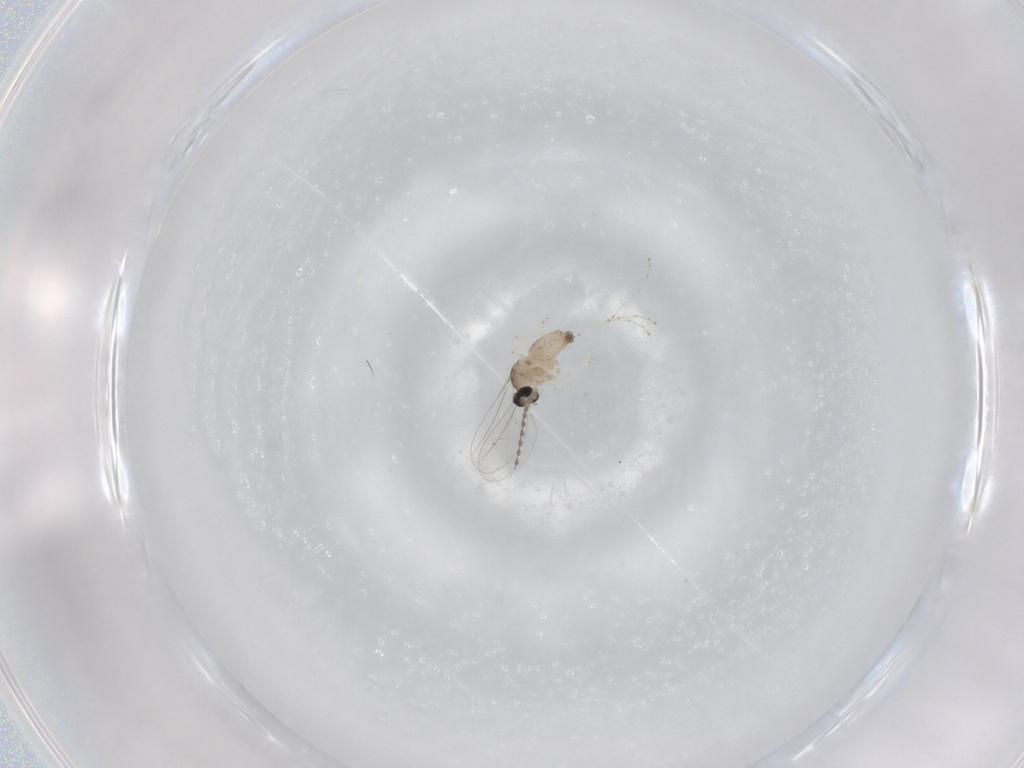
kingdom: Animalia
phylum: Arthropoda
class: Insecta
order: Diptera
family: Cecidomyiidae
